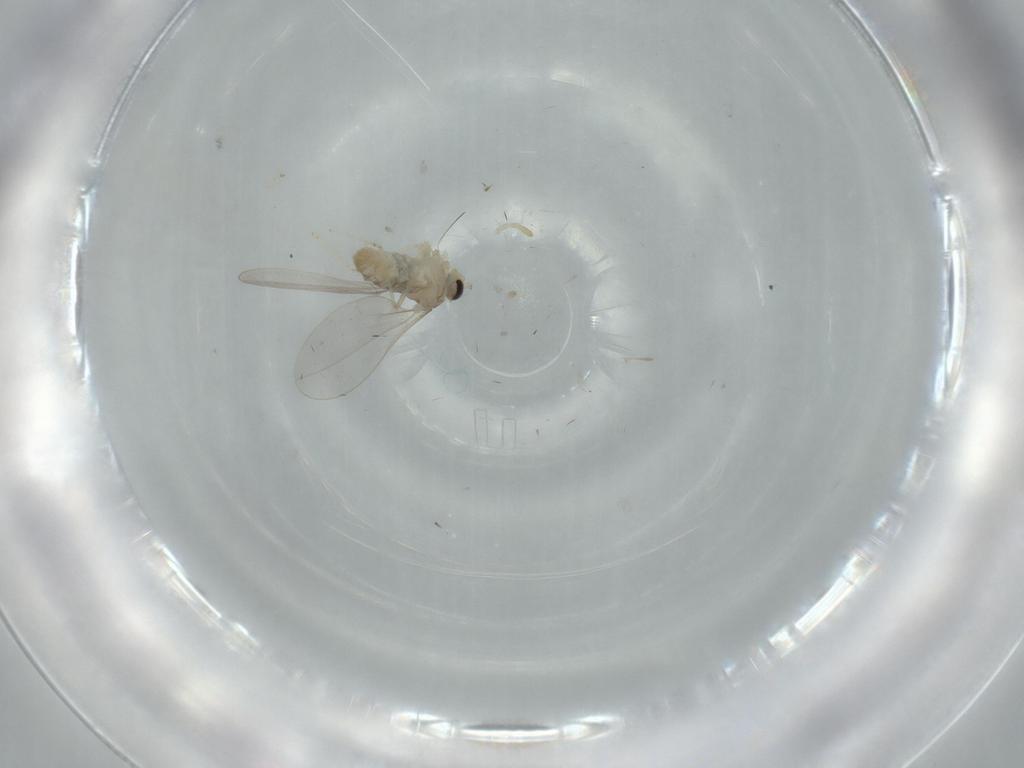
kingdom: Animalia
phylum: Arthropoda
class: Insecta
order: Diptera
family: Cecidomyiidae
